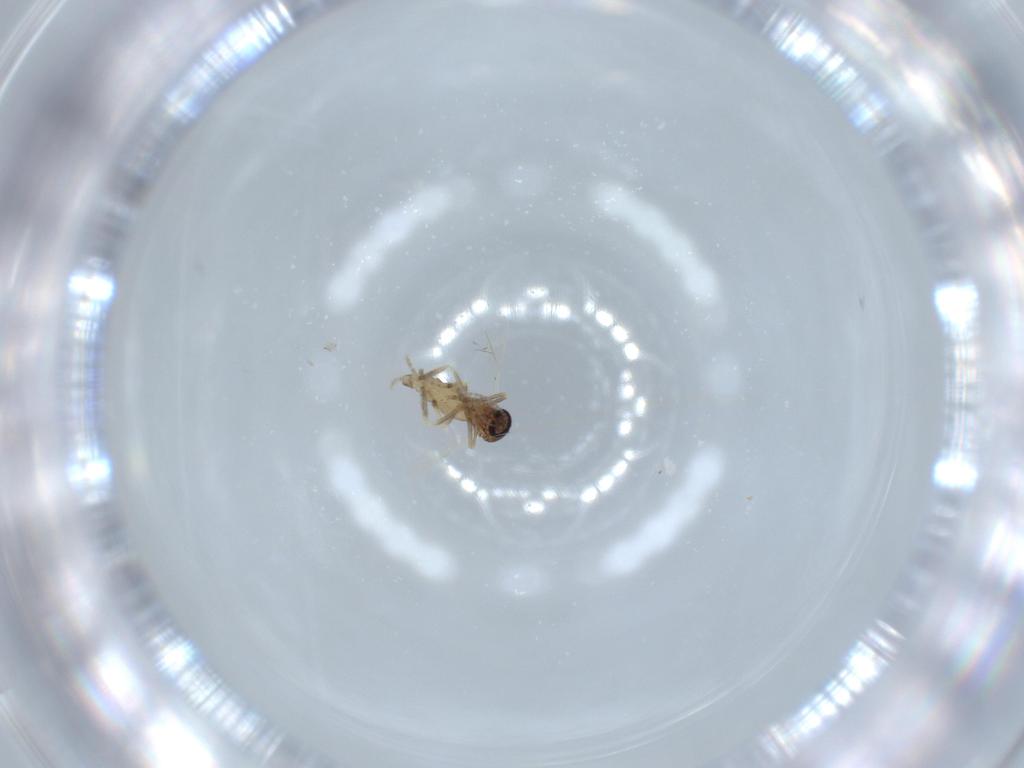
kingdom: Animalia
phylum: Arthropoda
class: Insecta
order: Diptera
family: Ceratopogonidae
